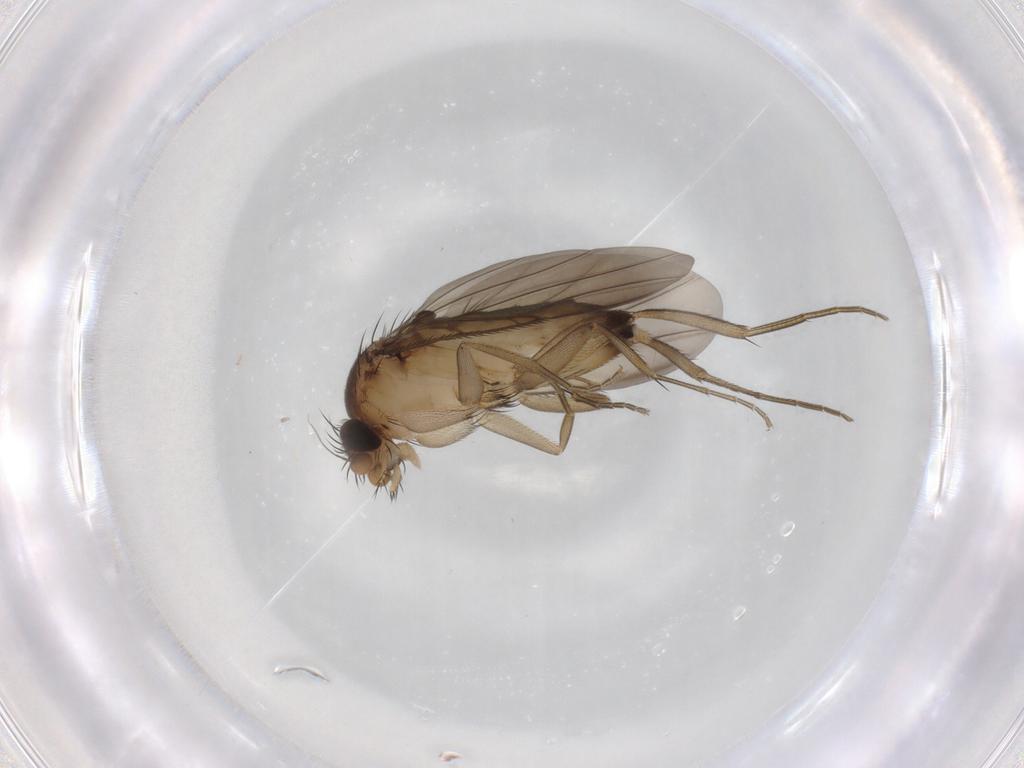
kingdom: Animalia
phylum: Arthropoda
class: Insecta
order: Diptera
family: Phoridae
